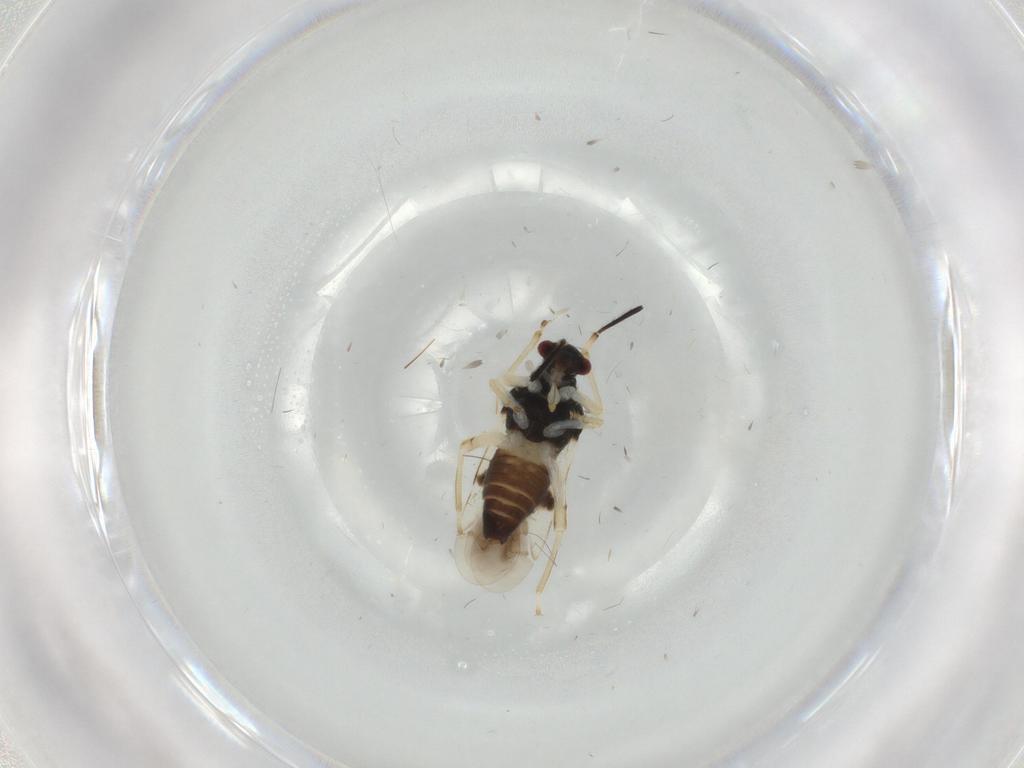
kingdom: Animalia
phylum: Arthropoda
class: Insecta
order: Hemiptera
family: Miridae
